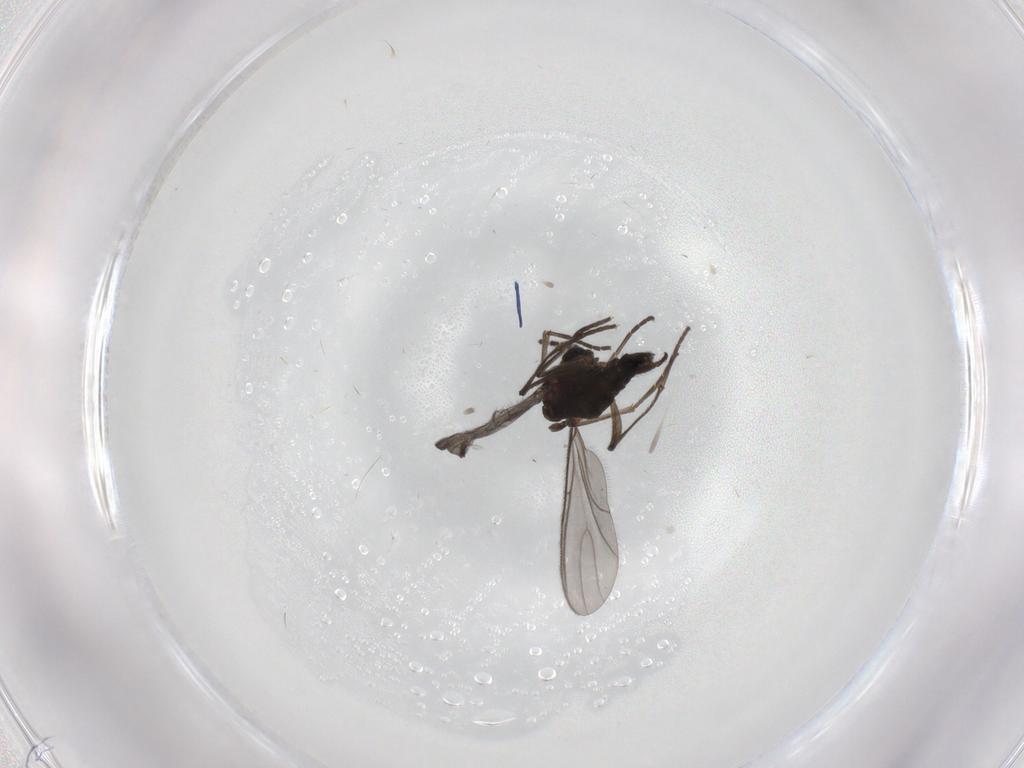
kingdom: Animalia
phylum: Arthropoda
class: Insecta
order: Diptera
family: Sciaridae
